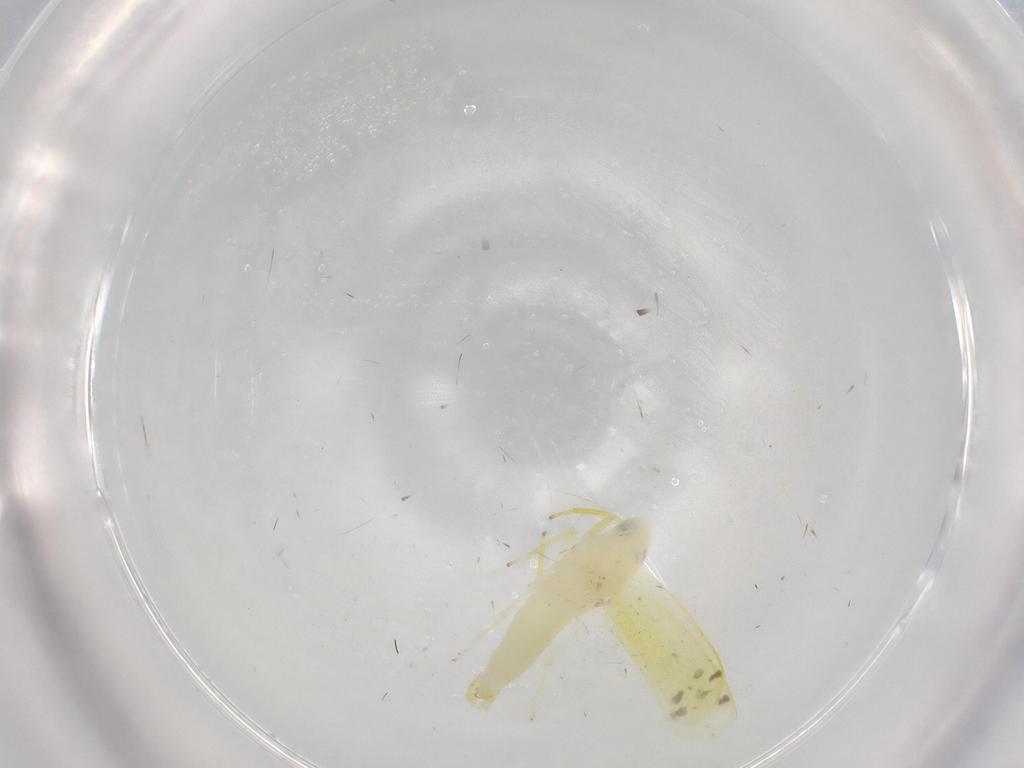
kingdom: Animalia
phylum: Arthropoda
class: Insecta
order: Hemiptera
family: Cicadellidae
